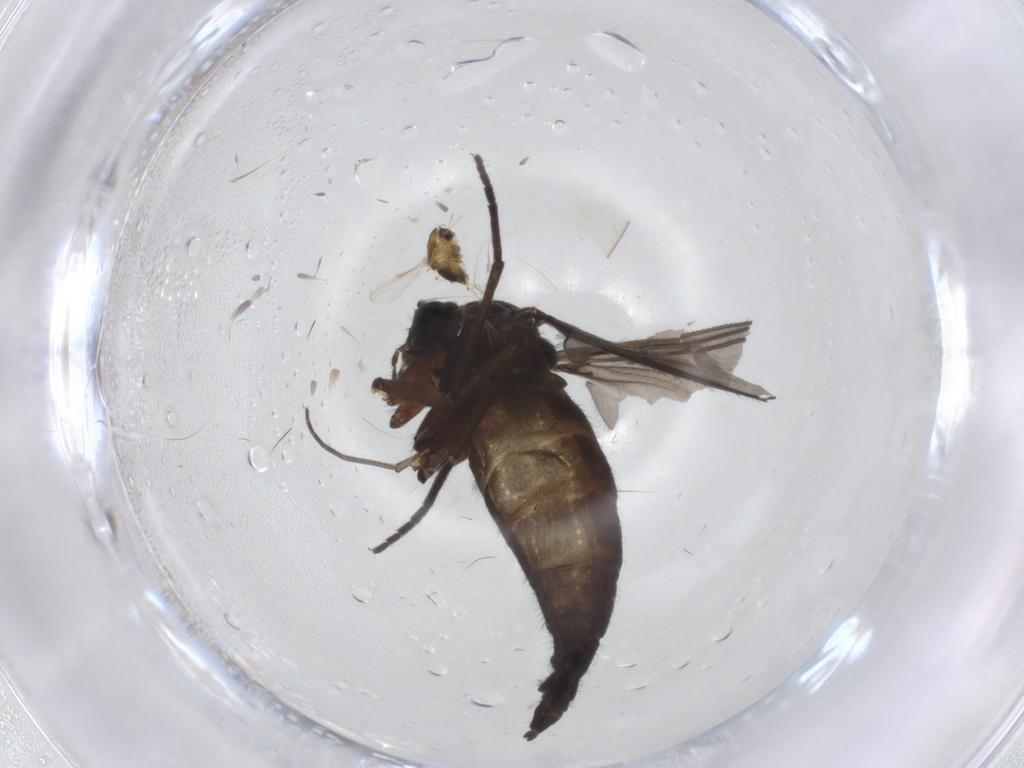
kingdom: Animalia
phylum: Arthropoda
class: Insecta
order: Diptera
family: Sciaridae
